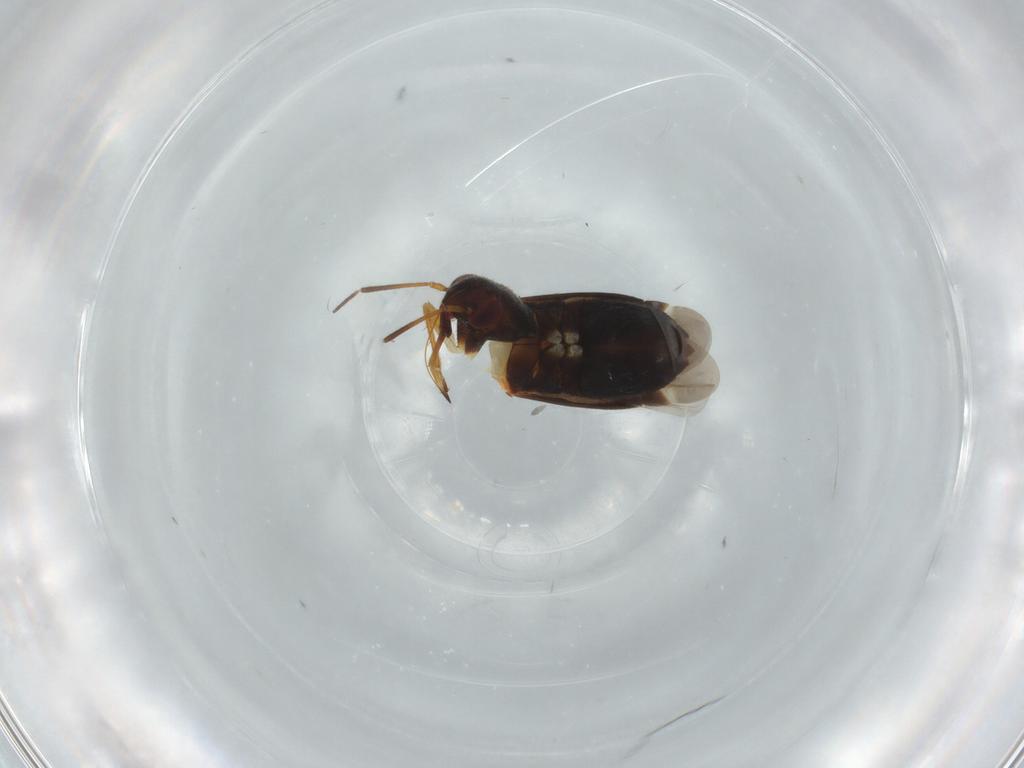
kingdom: Animalia
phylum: Arthropoda
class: Insecta
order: Hemiptera
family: Miridae
